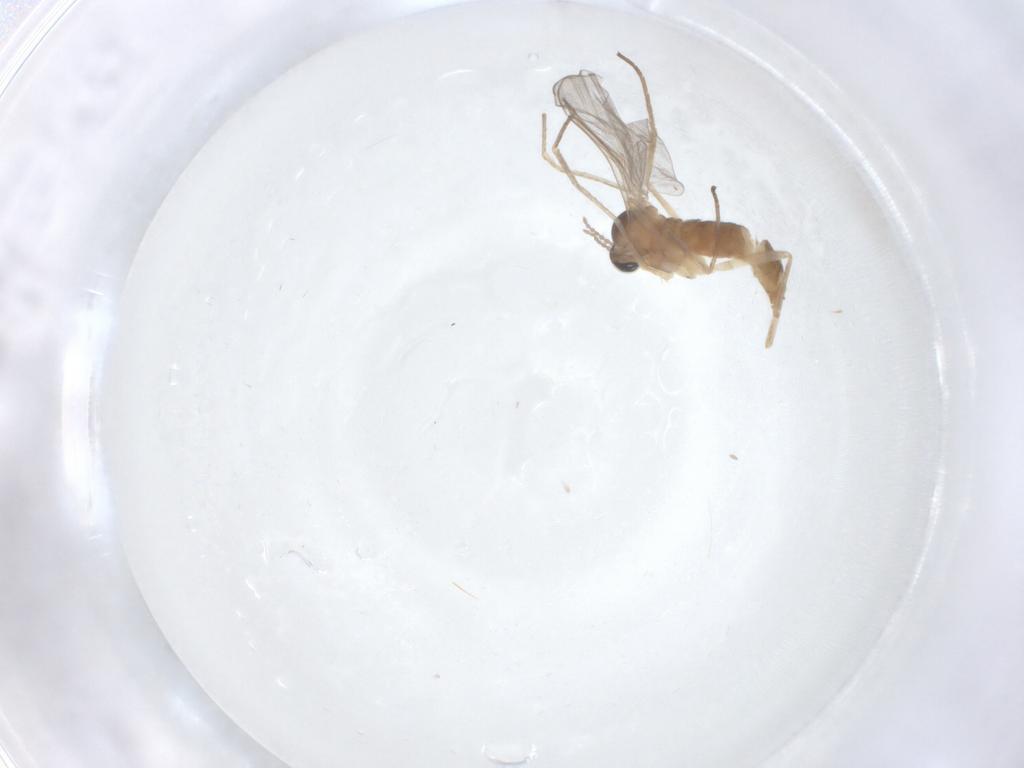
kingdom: Animalia
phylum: Arthropoda
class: Insecta
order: Diptera
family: Cecidomyiidae
